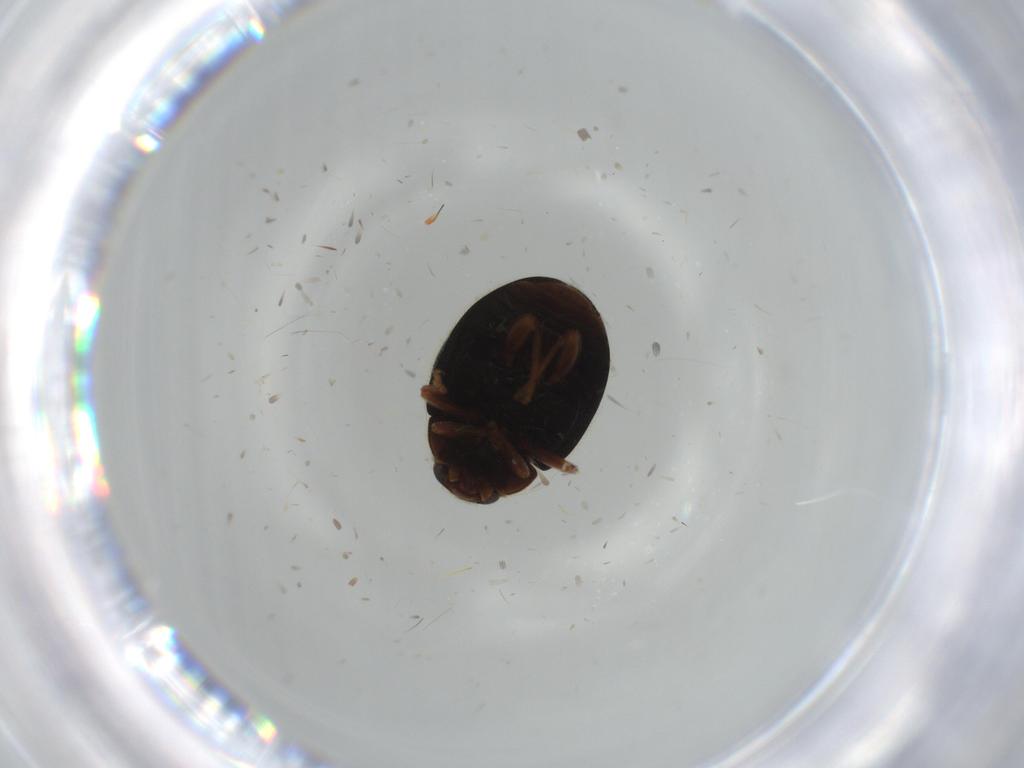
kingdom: Animalia
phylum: Arthropoda
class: Insecta
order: Coleoptera
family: Coccinellidae
